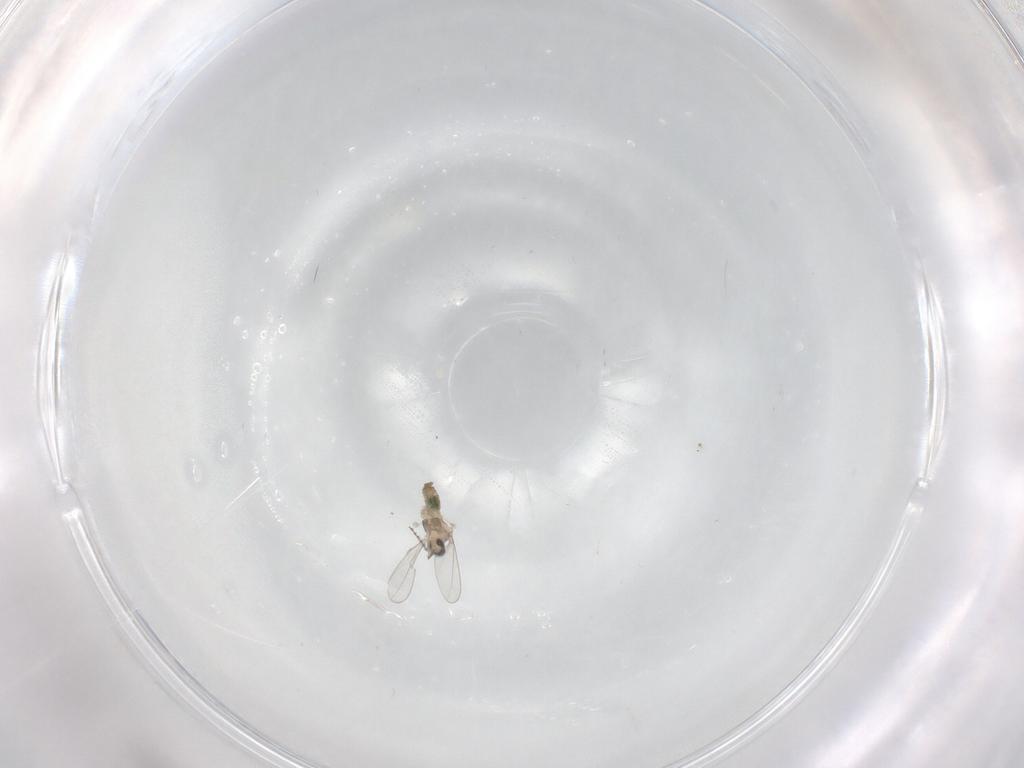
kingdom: Animalia
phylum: Arthropoda
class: Insecta
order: Diptera
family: Cecidomyiidae
